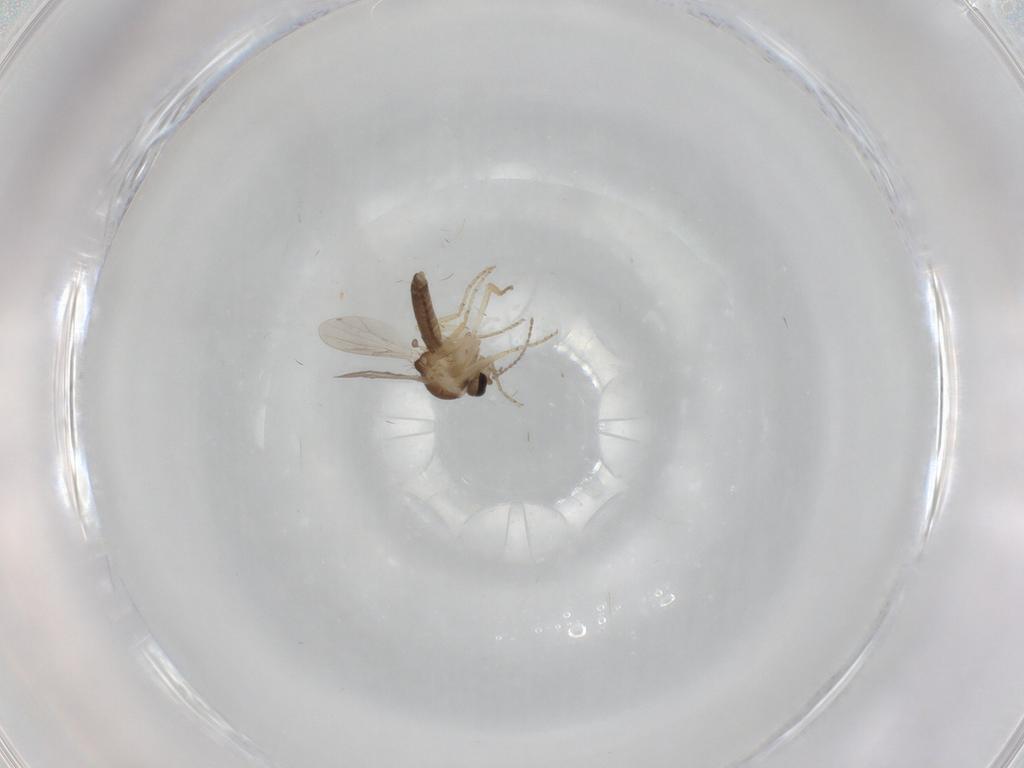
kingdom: Animalia
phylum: Arthropoda
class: Insecta
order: Diptera
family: Ceratopogonidae
